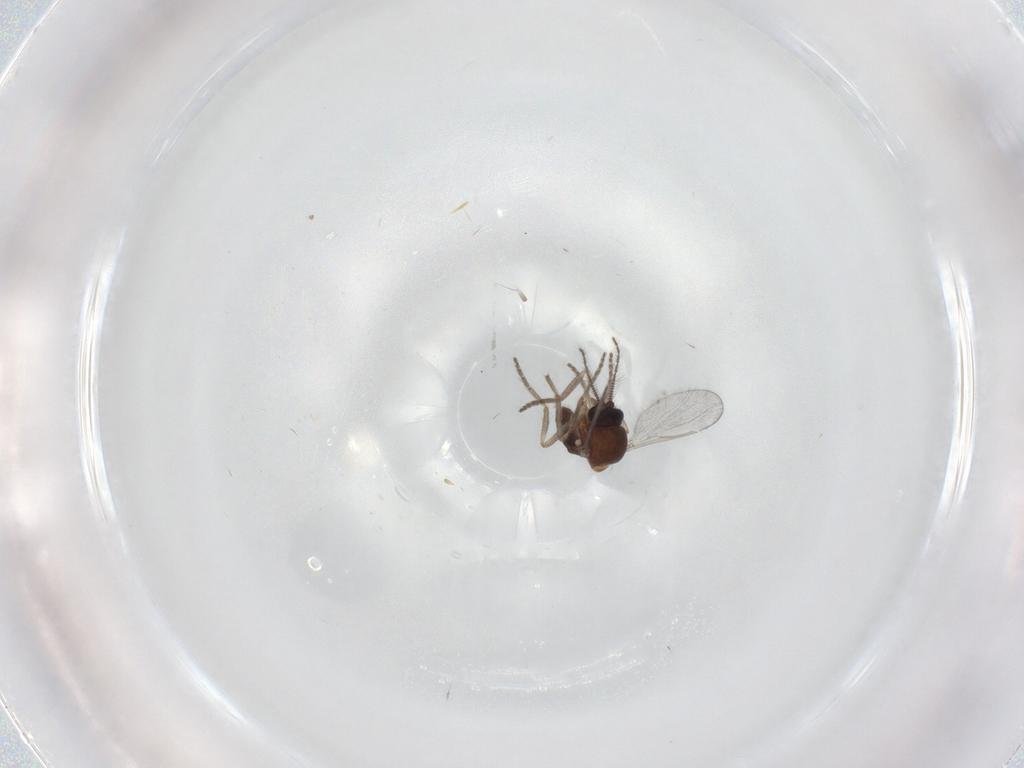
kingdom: Animalia
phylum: Arthropoda
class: Insecta
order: Diptera
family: Ceratopogonidae
